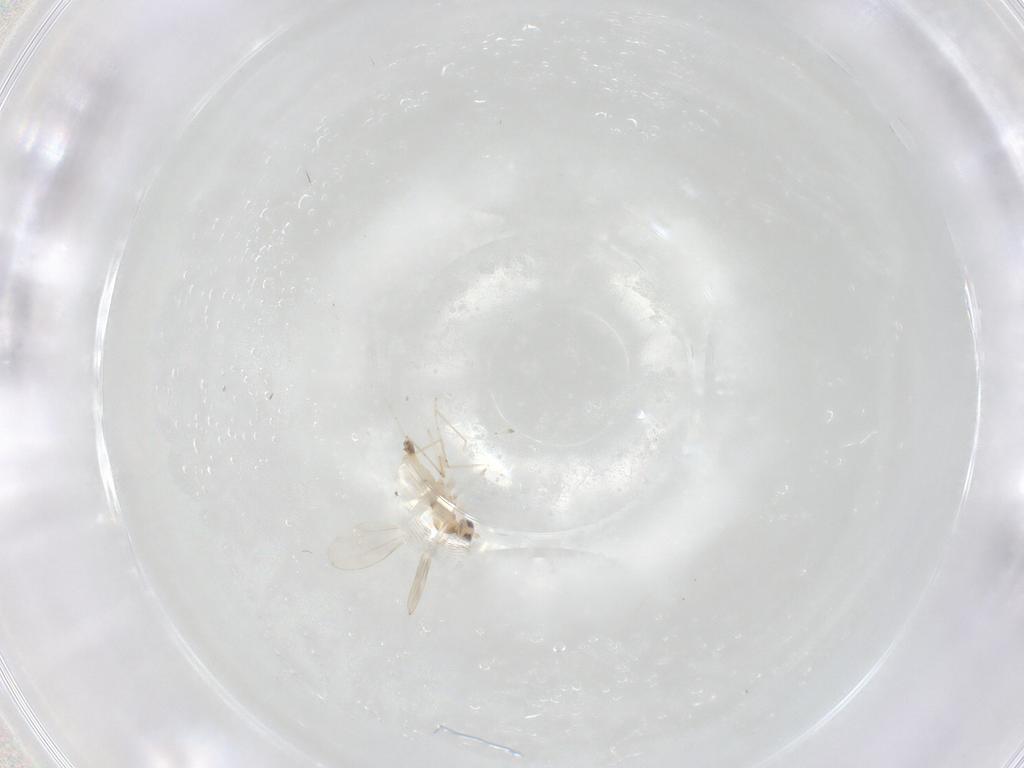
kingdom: Animalia
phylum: Arthropoda
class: Insecta
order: Diptera
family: Cecidomyiidae
